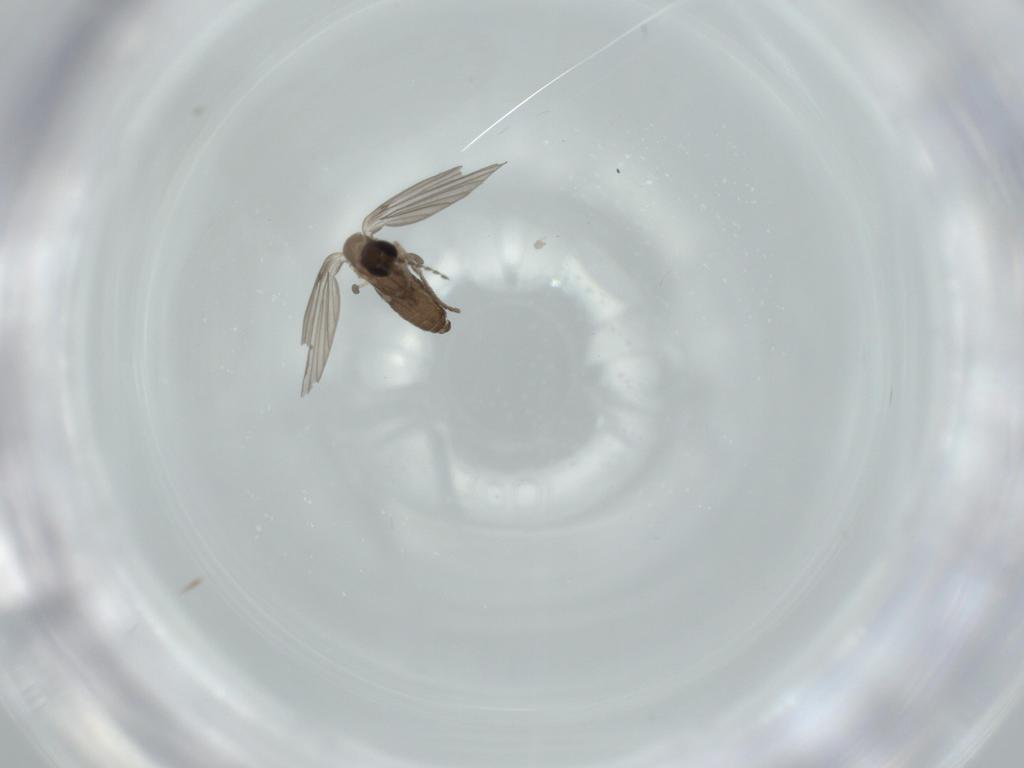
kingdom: Animalia
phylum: Arthropoda
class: Insecta
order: Diptera
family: Psychodidae
